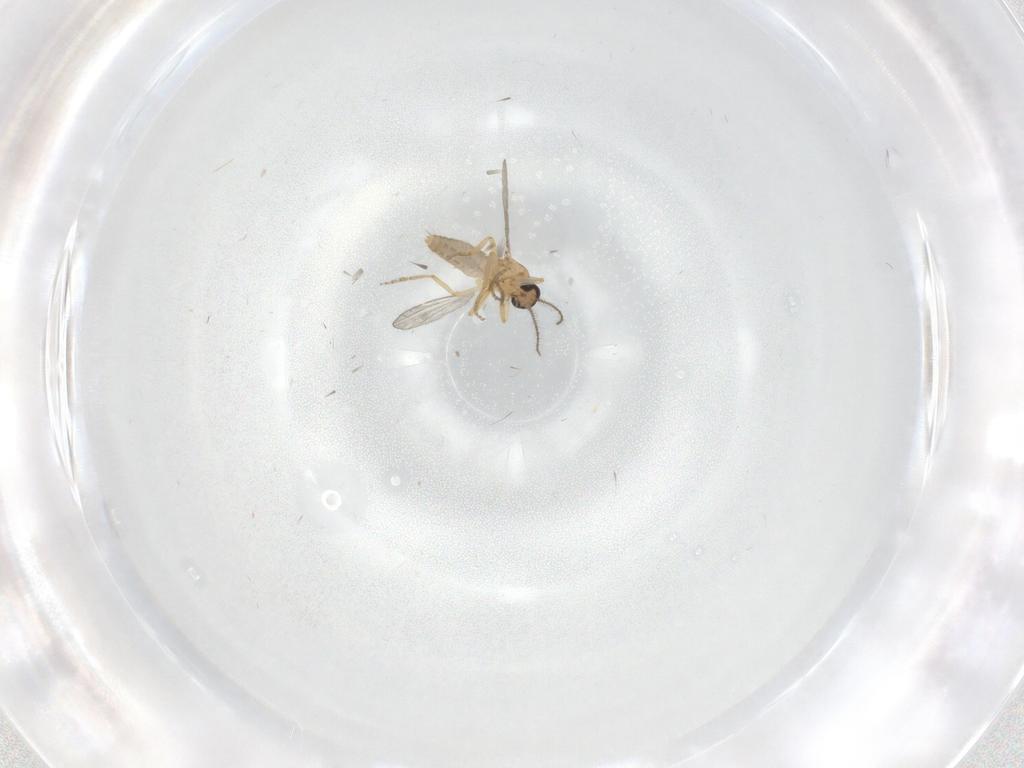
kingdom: Animalia
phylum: Arthropoda
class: Insecta
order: Diptera
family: Ceratopogonidae
